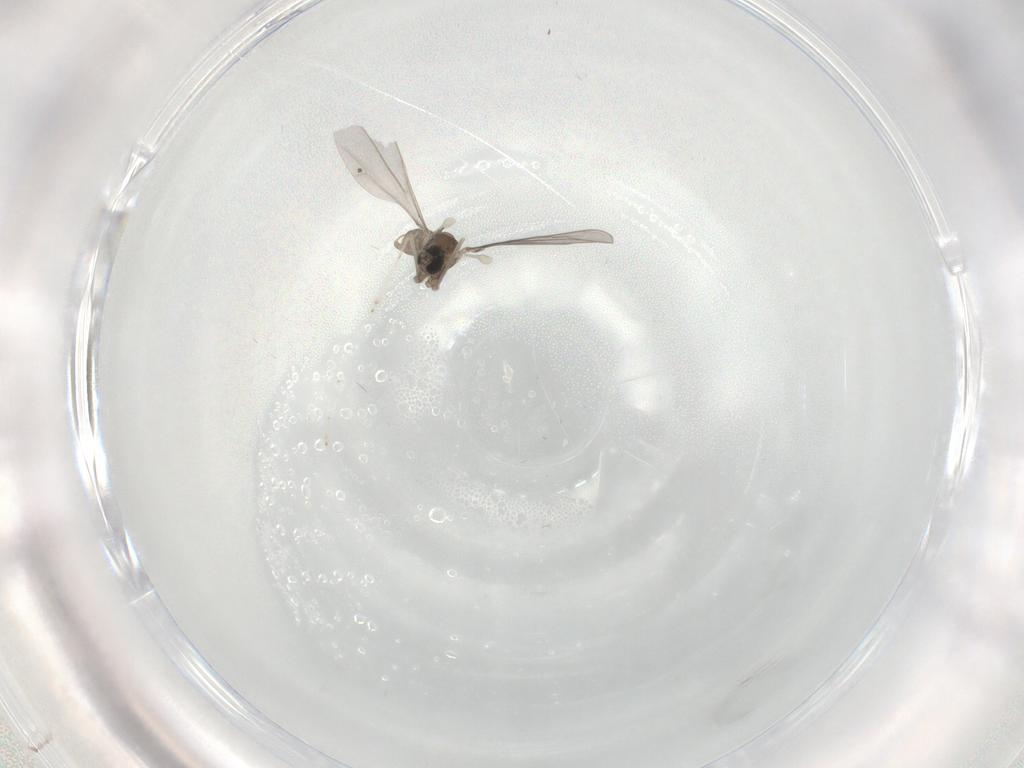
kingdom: Animalia
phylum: Arthropoda
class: Insecta
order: Diptera
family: Cecidomyiidae
